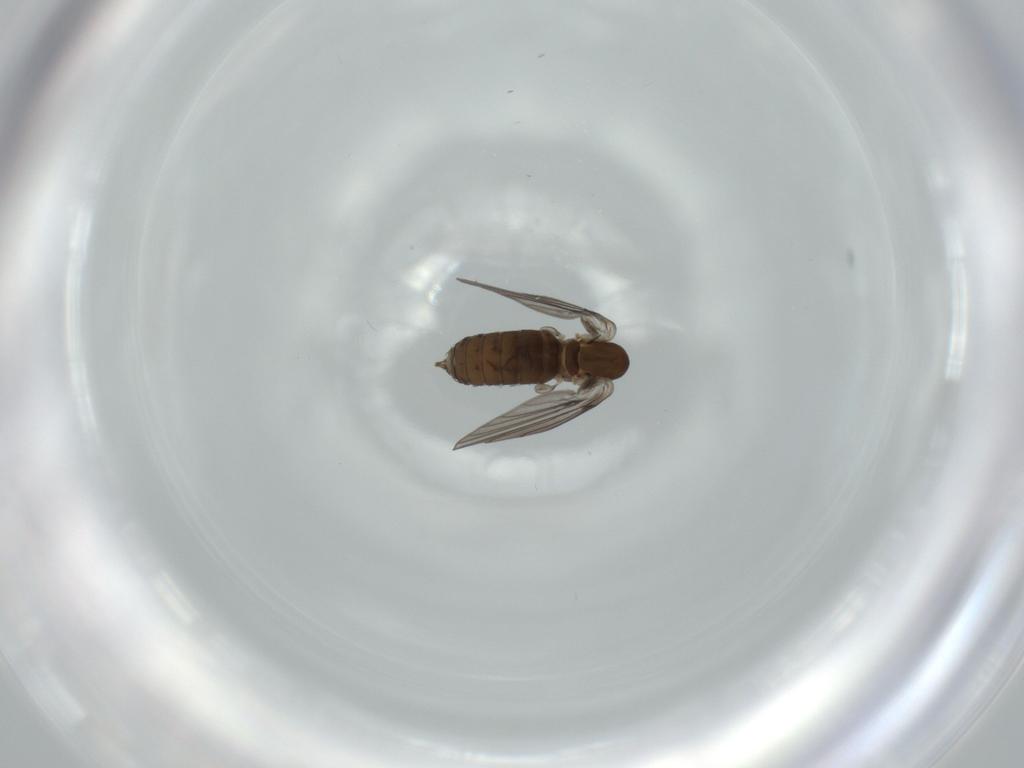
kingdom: Animalia
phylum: Arthropoda
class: Insecta
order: Diptera
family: Psychodidae
